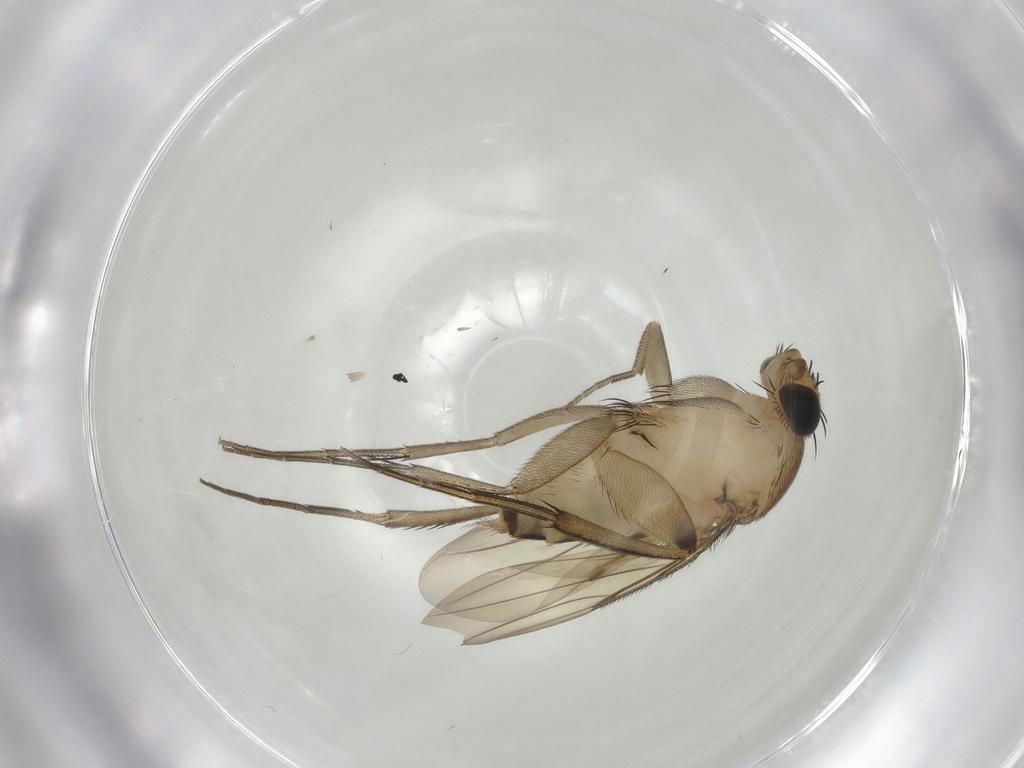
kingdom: Animalia
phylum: Arthropoda
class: Insecta
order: Diptera
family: Phoridae
